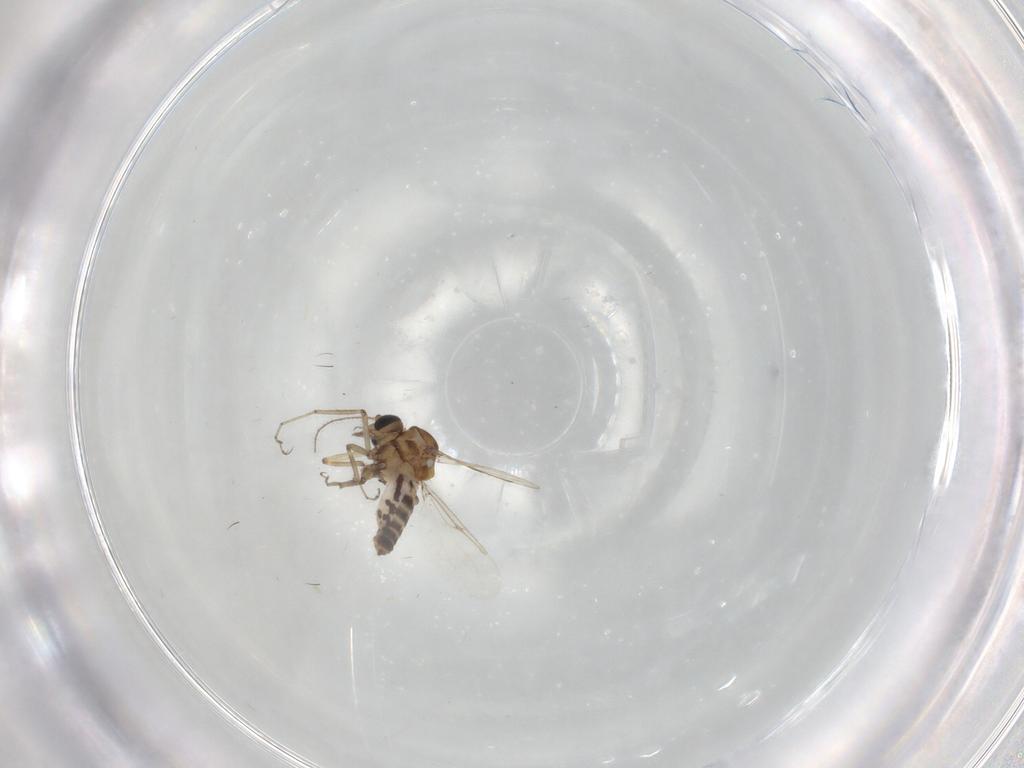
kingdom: Animalia
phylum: Arthropoda
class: Insecta
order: Diptera
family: Ceratopogonidae
